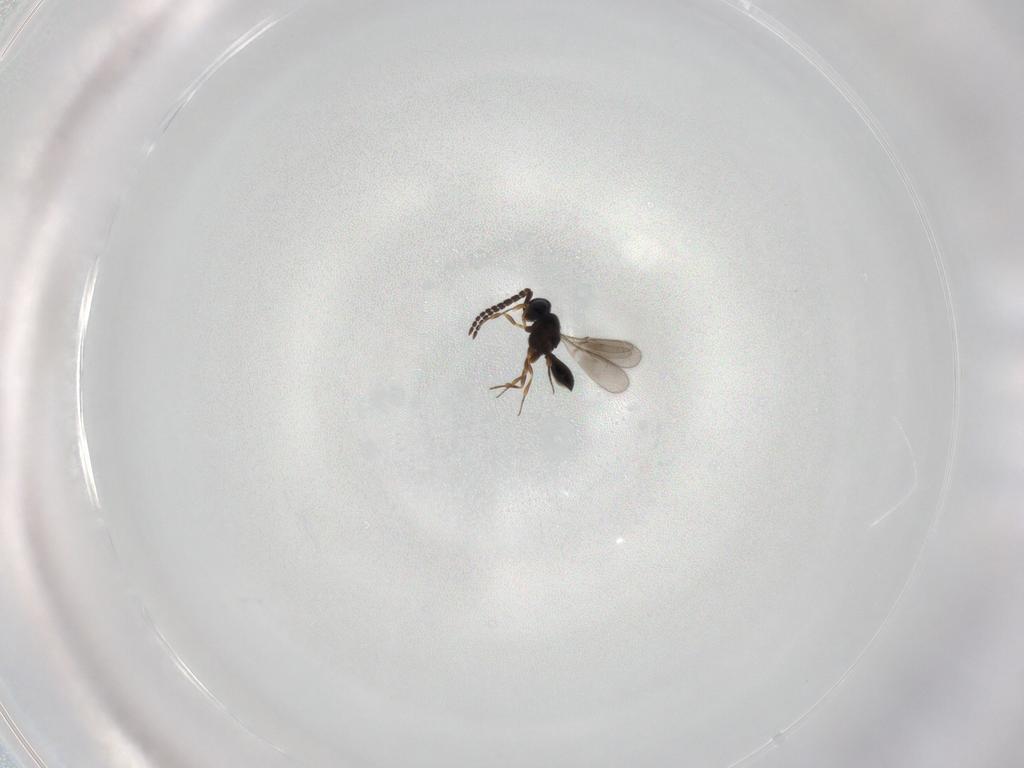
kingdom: Animalia
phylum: Arthropoda
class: Insecta
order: Hymenoptera
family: Scelionidae
